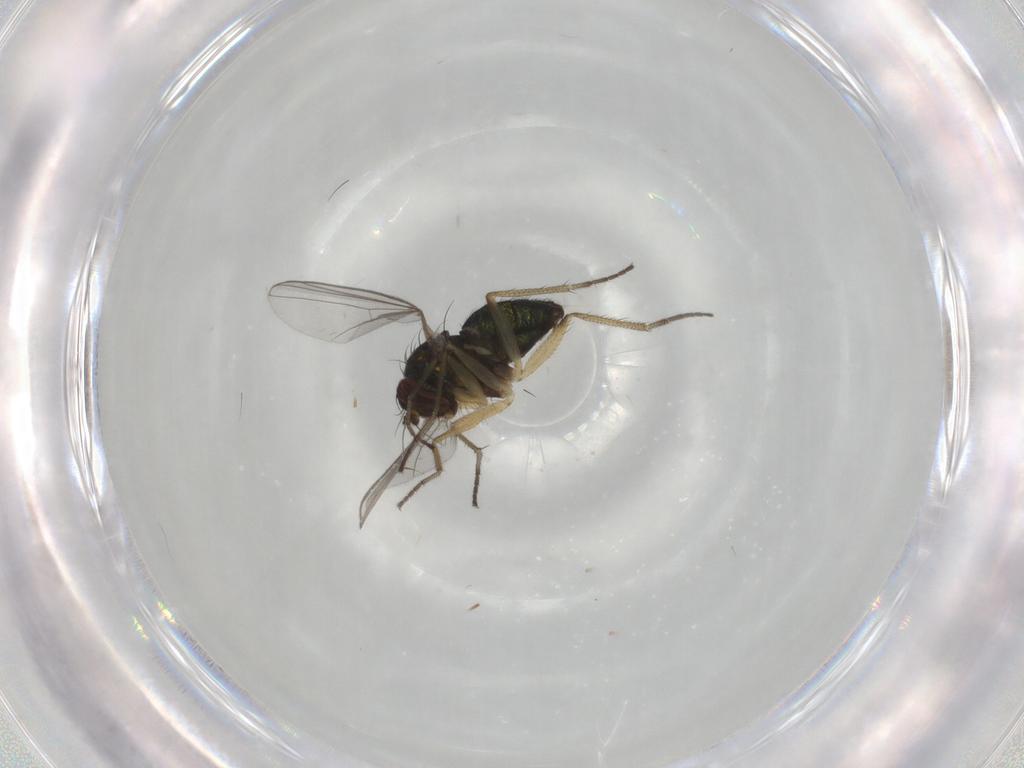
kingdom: Animalia
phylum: Arthropoda
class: Insecta
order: Diptera
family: Dolichopodidae
